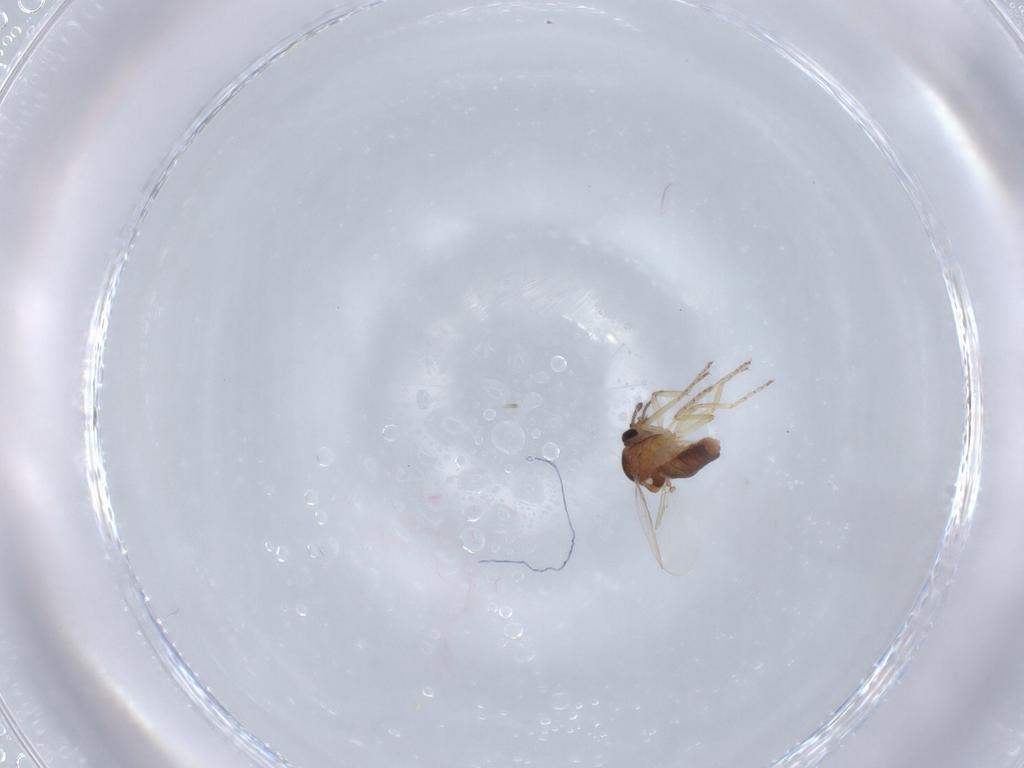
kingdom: Animalia
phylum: Arthropoda
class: Insecta
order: Diptera
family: Ceratopogonidae
